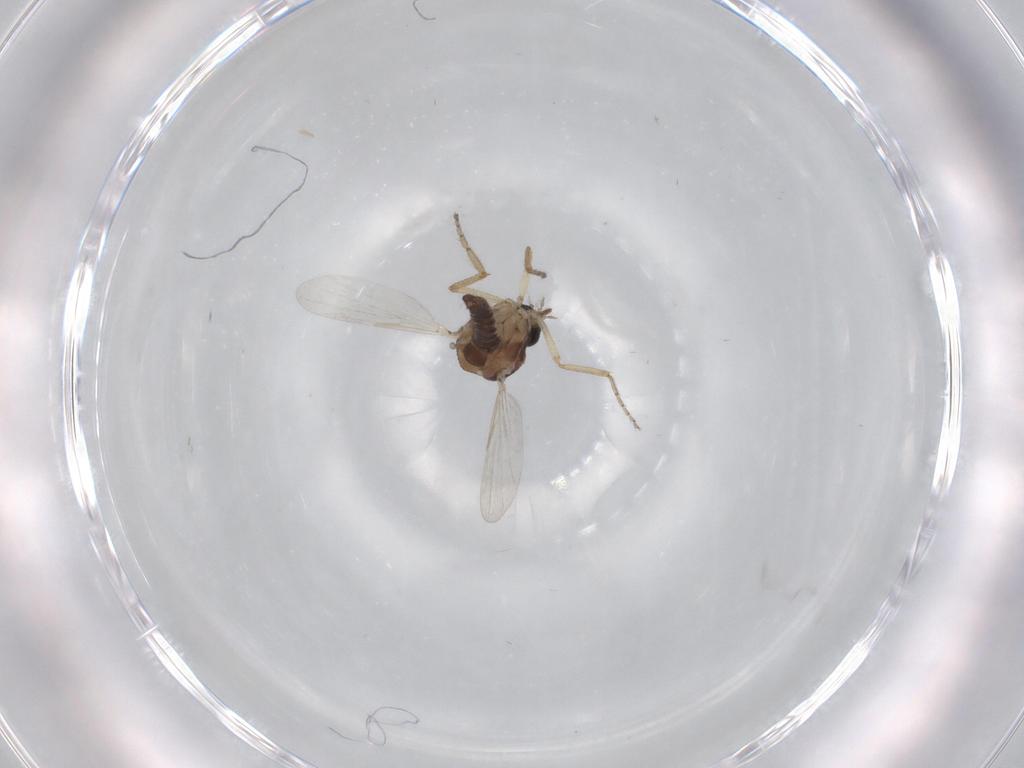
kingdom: Animalia
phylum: Arthropoda
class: Insecta
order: Diptera
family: Ceratopogonidae
